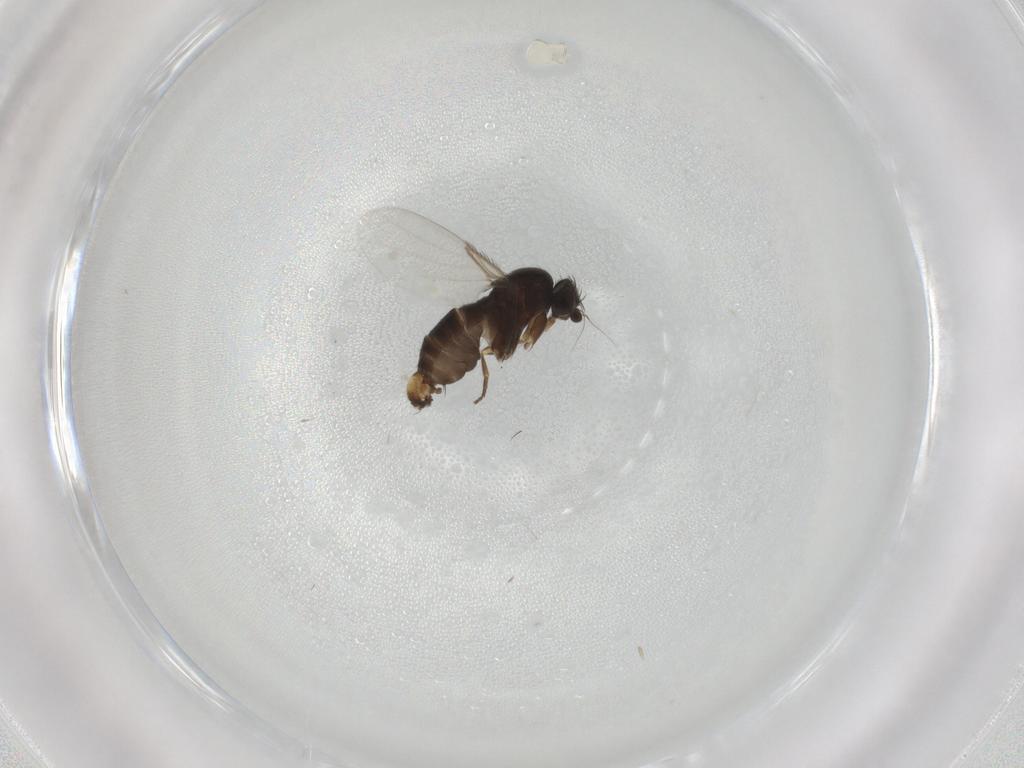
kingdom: Animalia
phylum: Arthropoda
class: Insecta
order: Diptera
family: Phoridae
